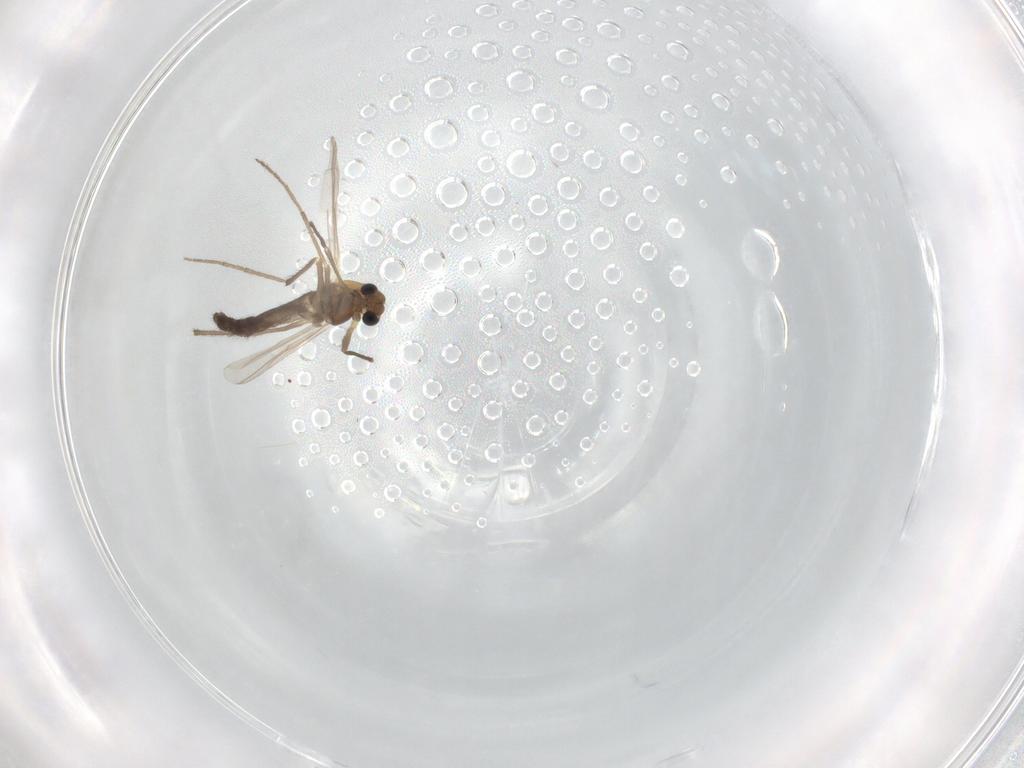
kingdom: Animalia
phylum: Arthropoda
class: Insecta
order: Diptera
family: Chironomidae
